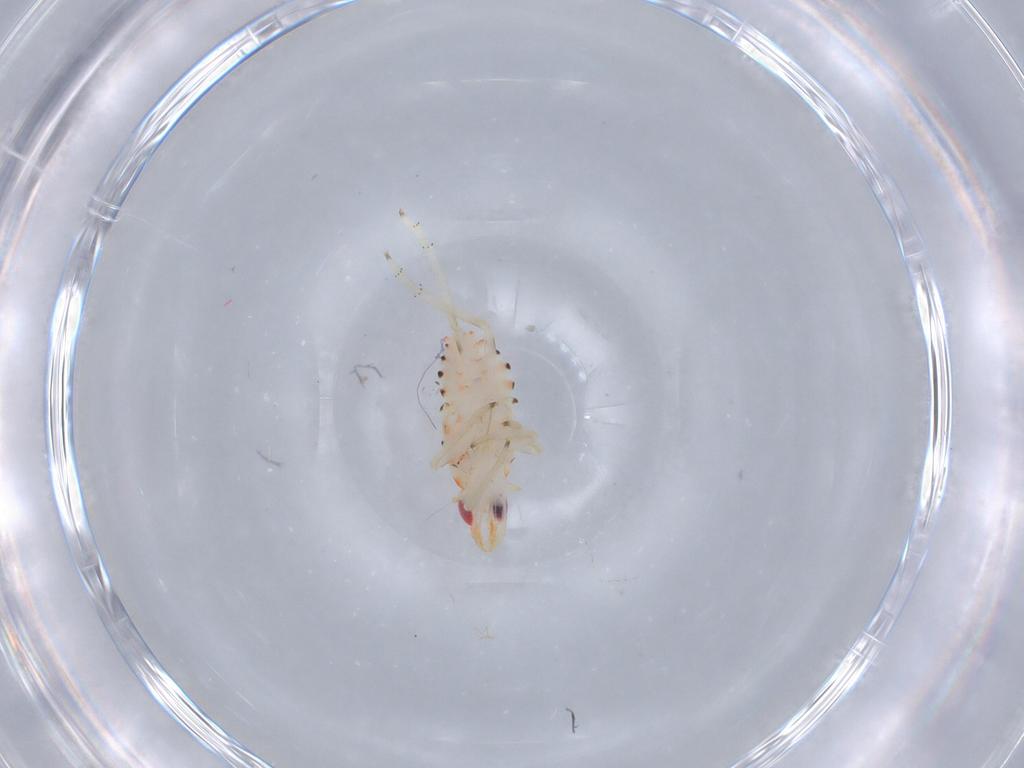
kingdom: Animalia
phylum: Arthropoda
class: Insecta
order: Hemiptera
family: Tropiduchidae
